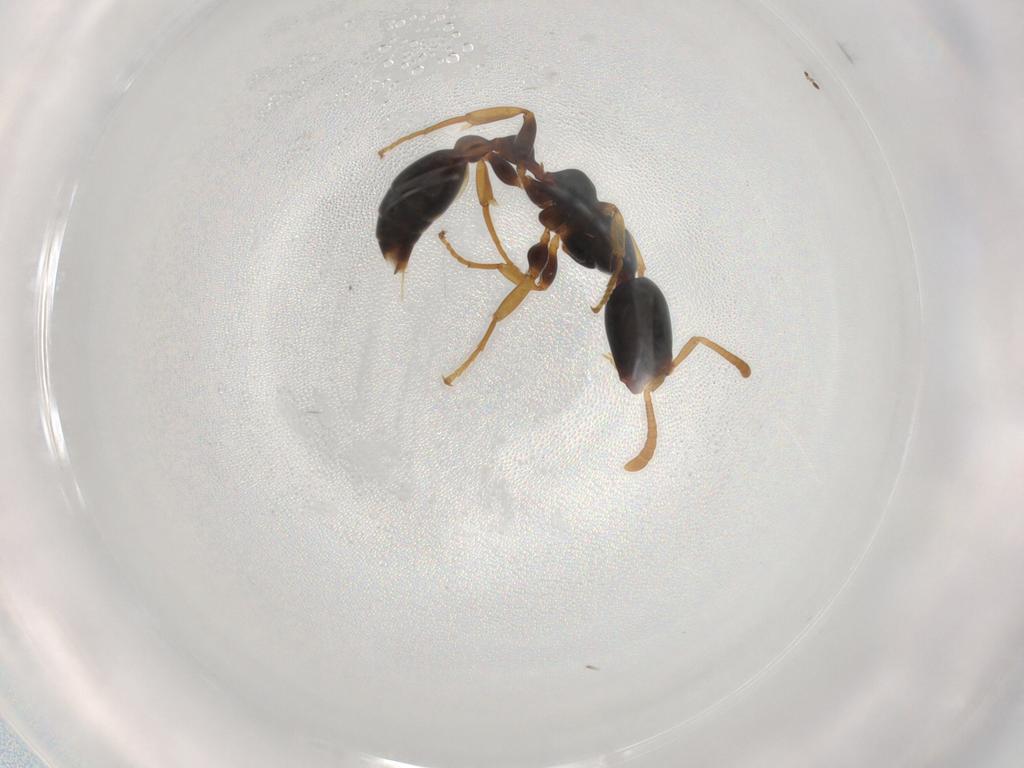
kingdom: Animalia
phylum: Arthropoda
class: Insecta
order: Hymenoptera
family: Formicidae
